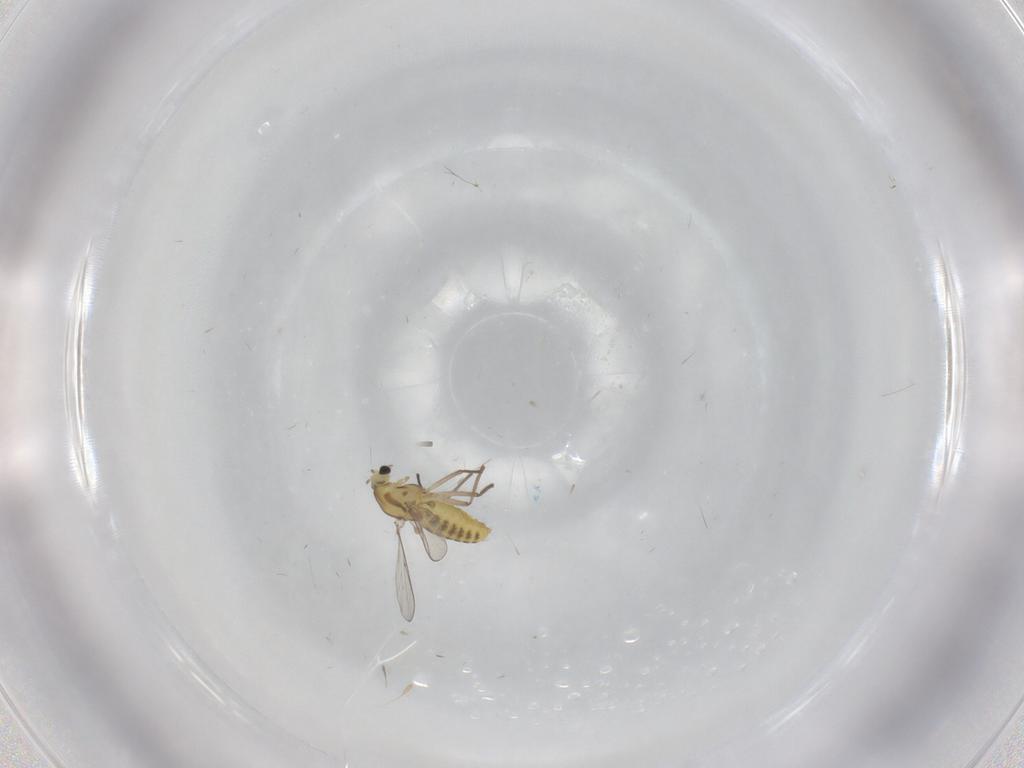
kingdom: Animalia
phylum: Arthropoda
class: Insecta
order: Diptera
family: Chironomidae
